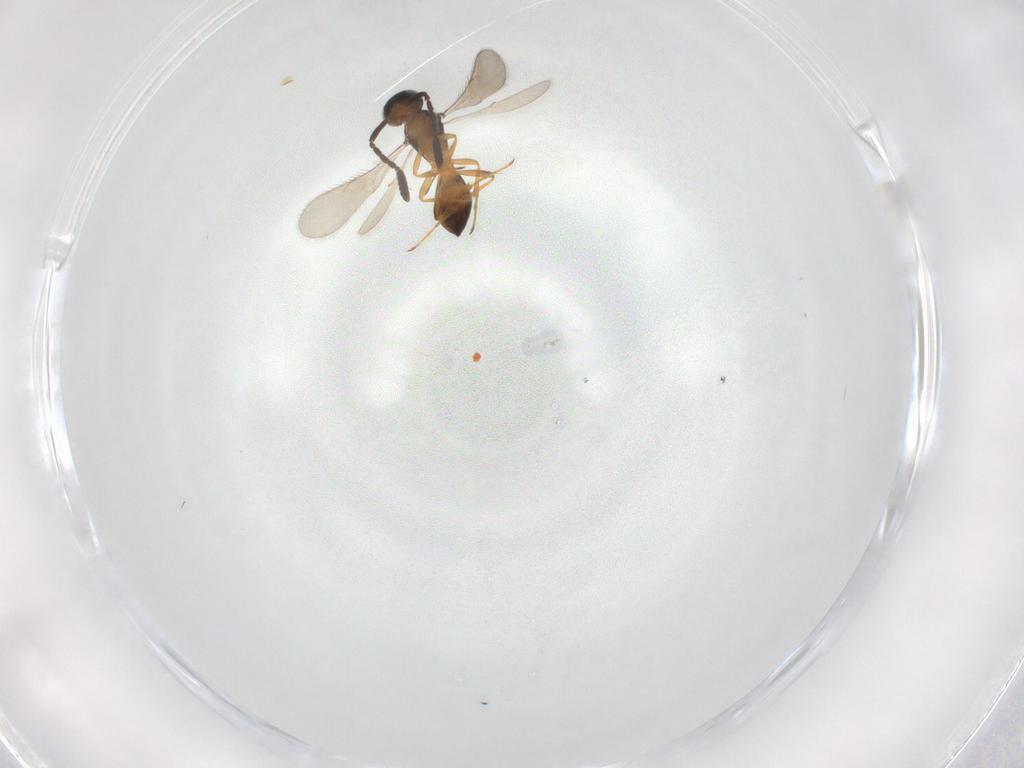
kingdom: Animalia
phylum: Arthropoda
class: Insecta
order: Hymenoptera
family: Scelionidae
